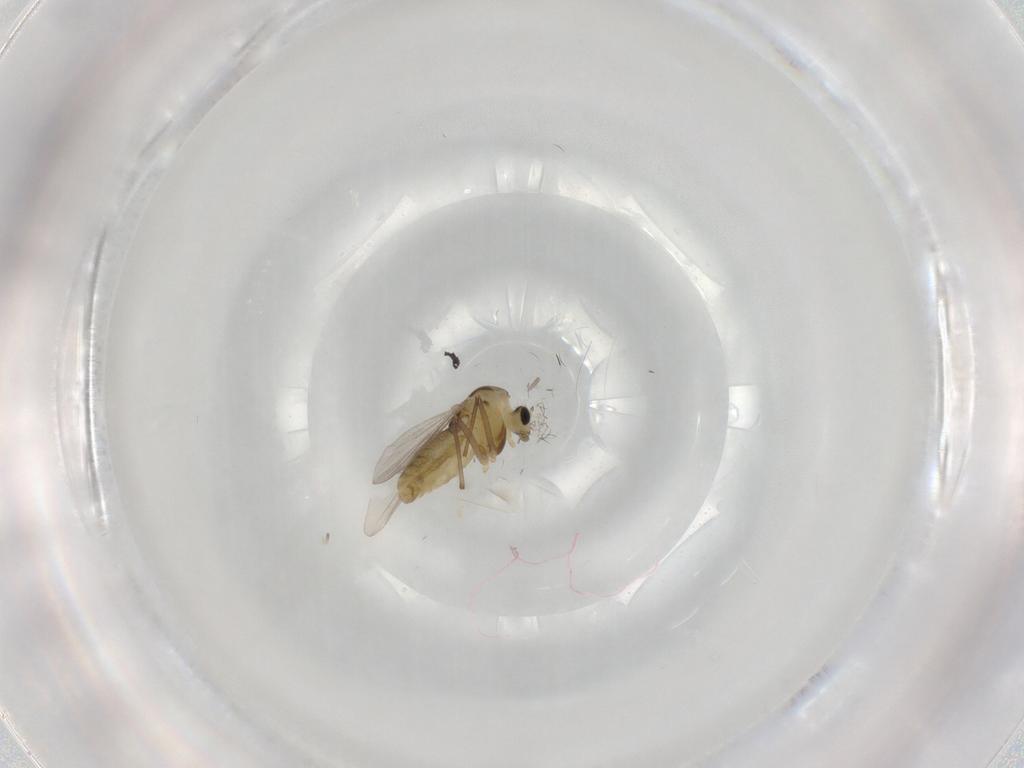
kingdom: Animalia
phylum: Arthropoda
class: Insecta
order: Diptera
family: Chironomidae
